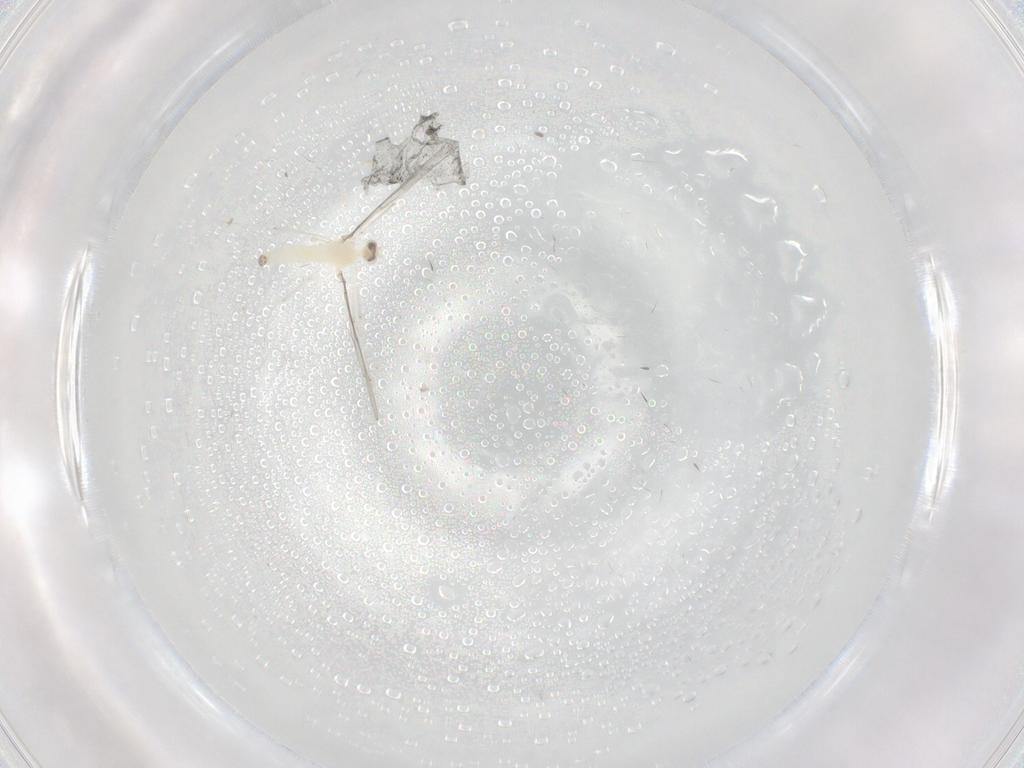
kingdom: Animalia
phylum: Arthropoda
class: Insecta
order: Diptera
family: Cecidomyiidae
